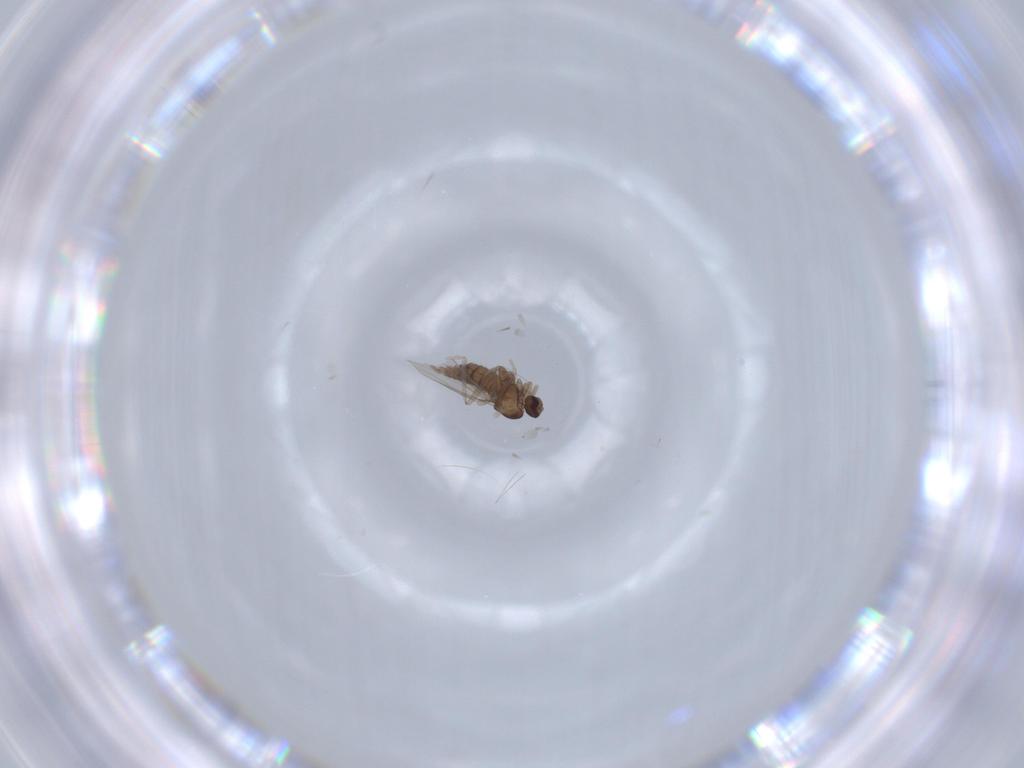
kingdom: Animalia
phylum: Arthropoda
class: Insecta
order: Diptera
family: Cecidomyiidae
